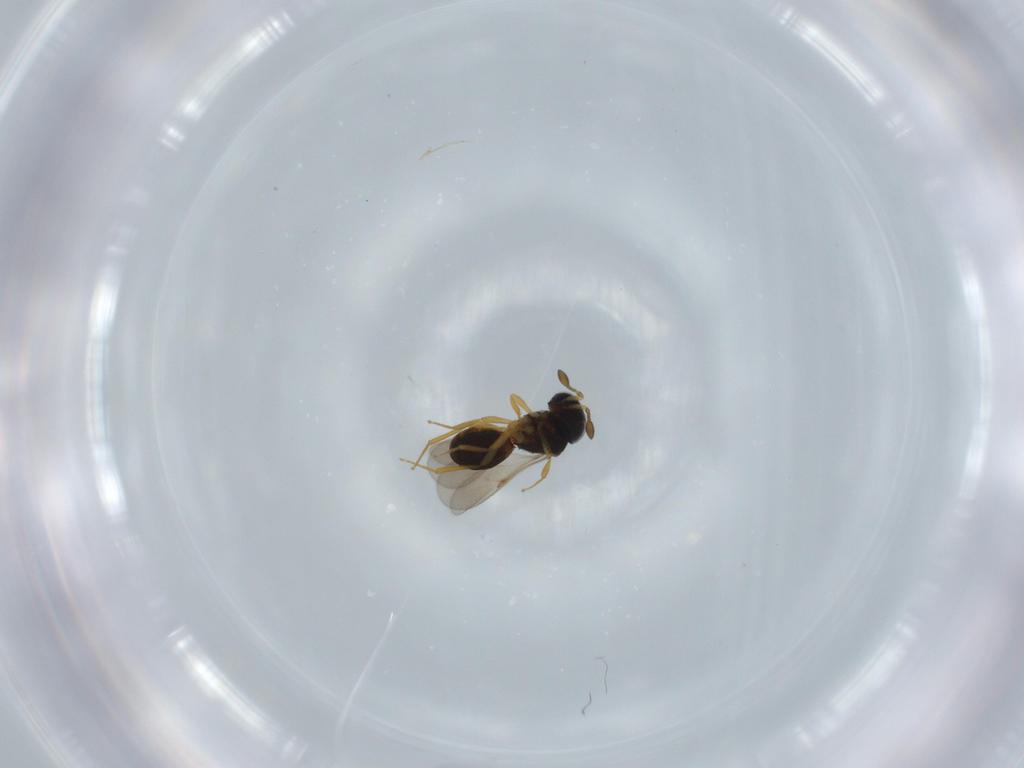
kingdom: Animalia
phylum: Arthropoda
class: Insecta
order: Hymenoptera
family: Scelionidae
